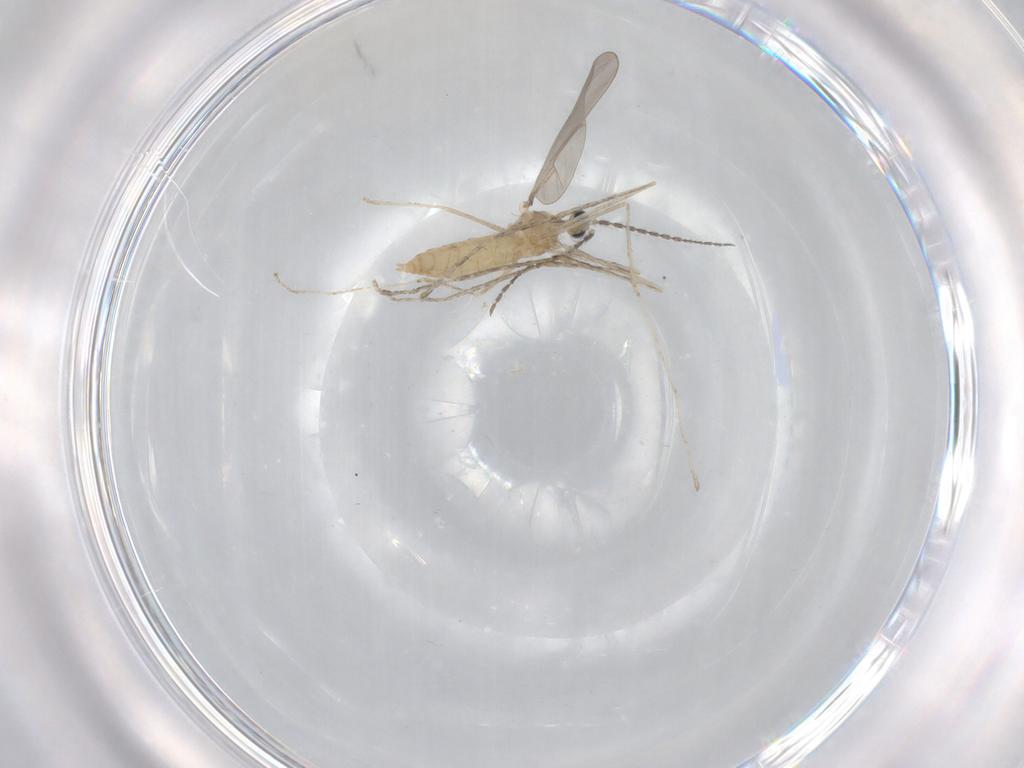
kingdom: Animalia
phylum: Arthropoda
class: Insecta
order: Diptera
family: Cecidomyiidae
